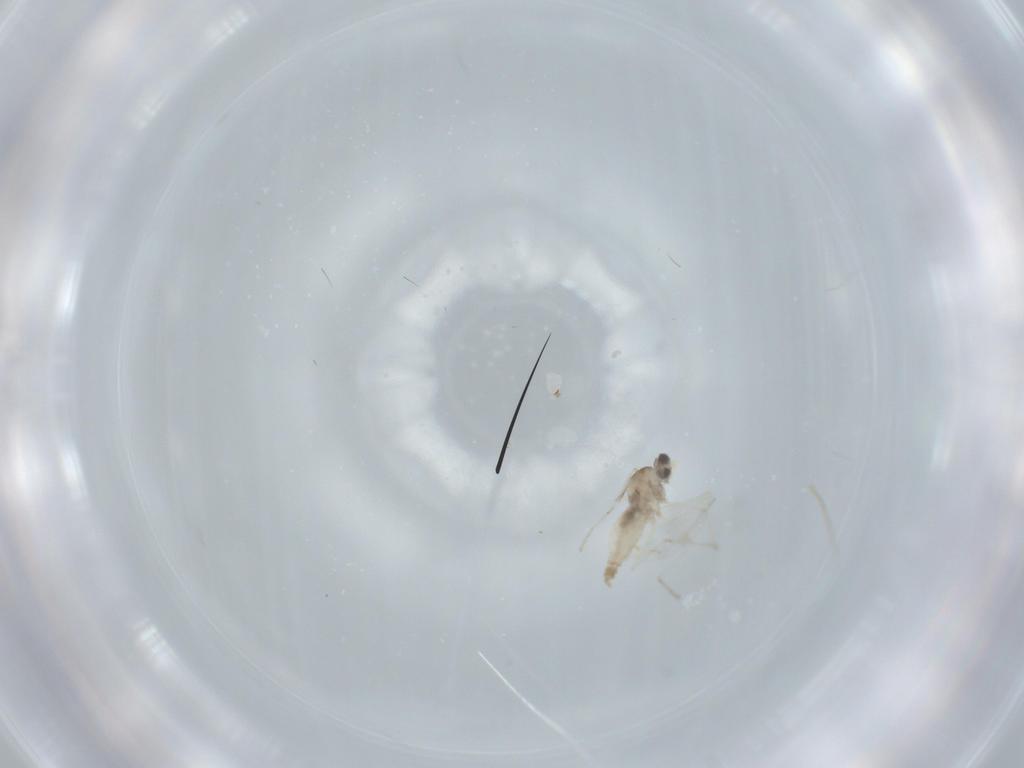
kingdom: Animalia
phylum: Arthropoda
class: Insecta
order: Diptera
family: Cecidomyiidae
